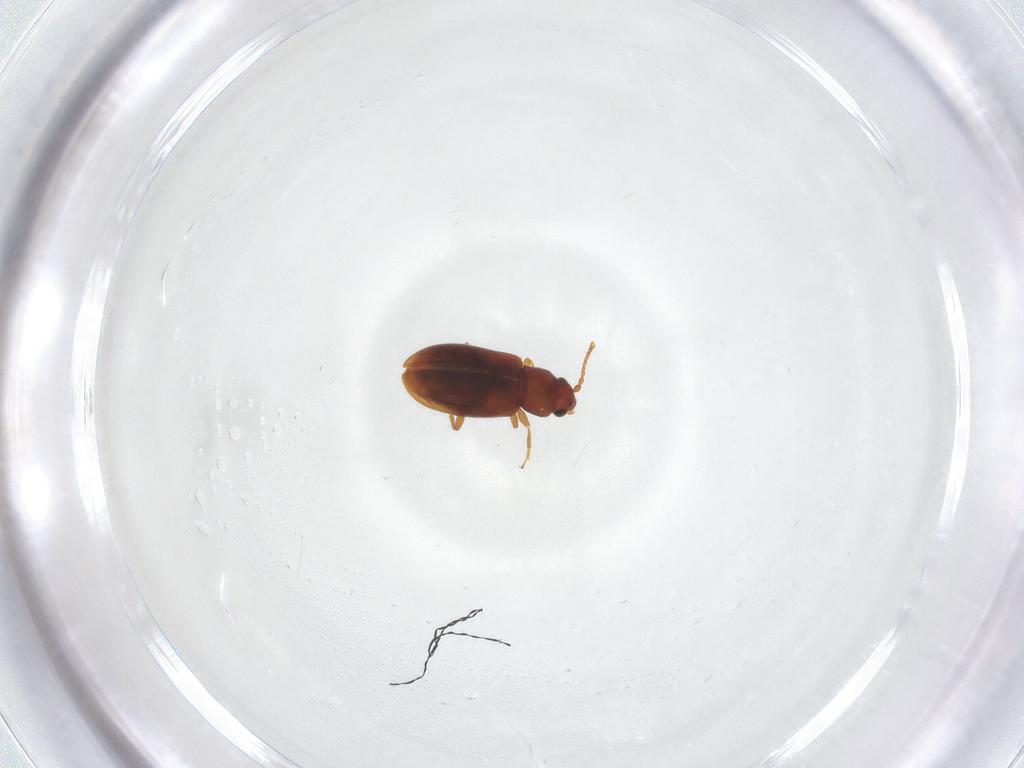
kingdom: Animalia
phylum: Arthropoda
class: Insecta
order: Coleoptera
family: Cryptophagidae
